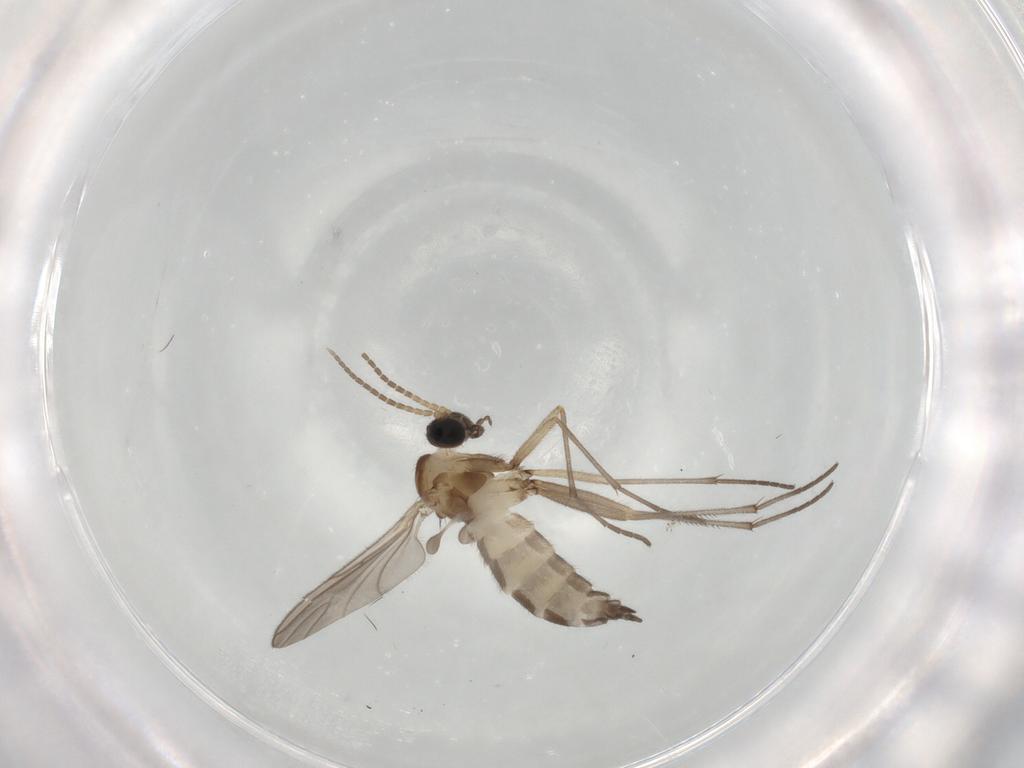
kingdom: Animalia
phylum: Arthropoda
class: Insecta
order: Diptera
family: Sciaridae
